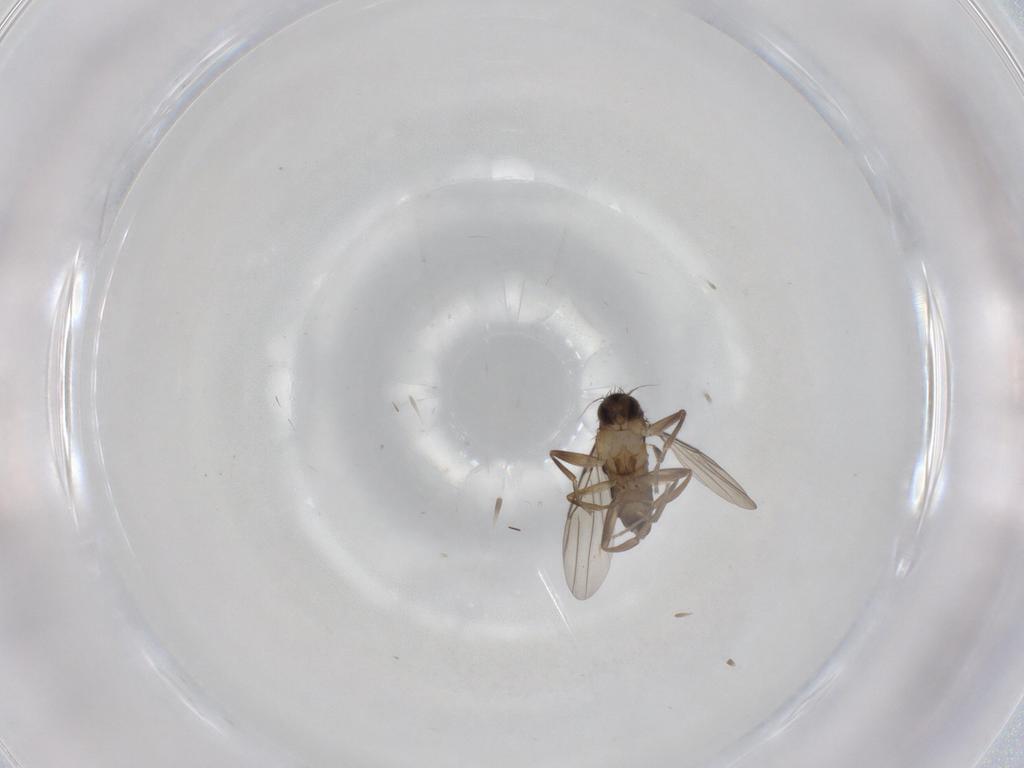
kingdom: Animalia
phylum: Arthropoda
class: Insecta
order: Diptera
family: Phoridae
